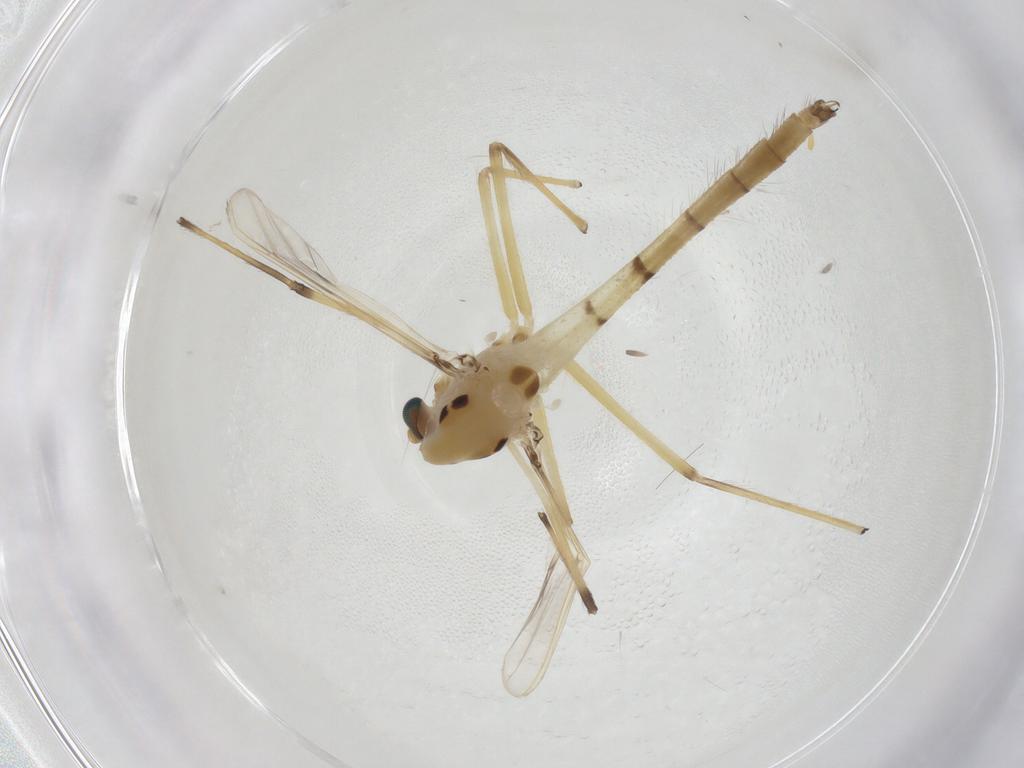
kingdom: Animalia
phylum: Arthropoda
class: Insecta
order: Diptera
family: Chironomidae
